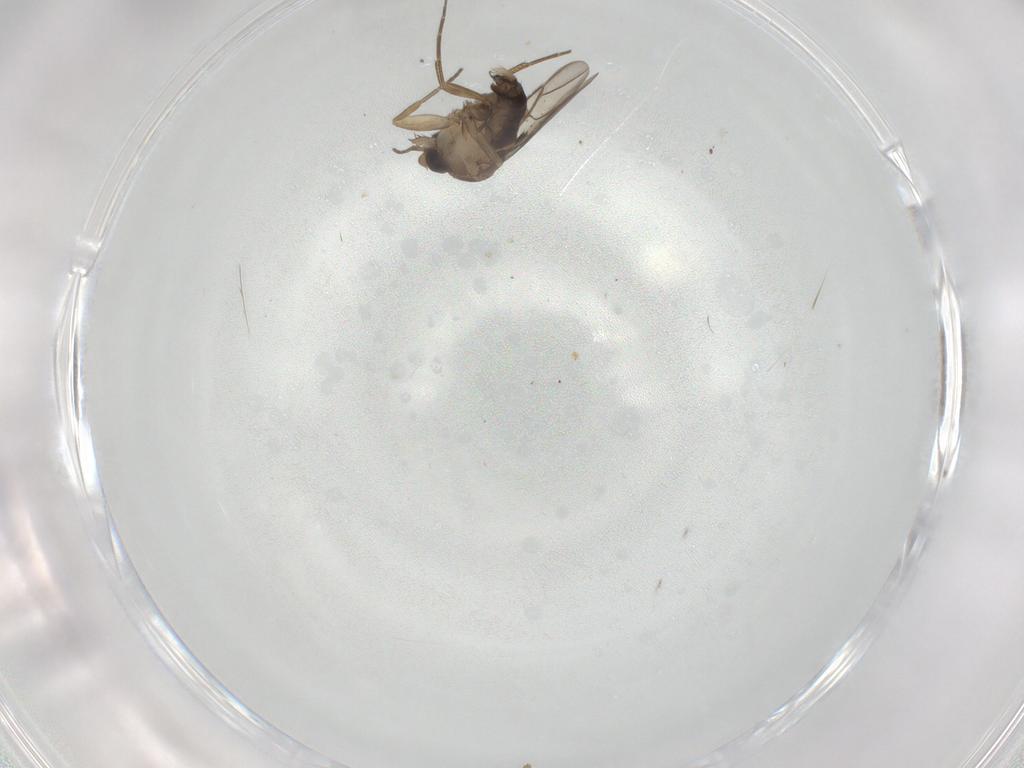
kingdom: Animalia
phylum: Arthropoda
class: Insecta
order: Diptera
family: Phoridae
